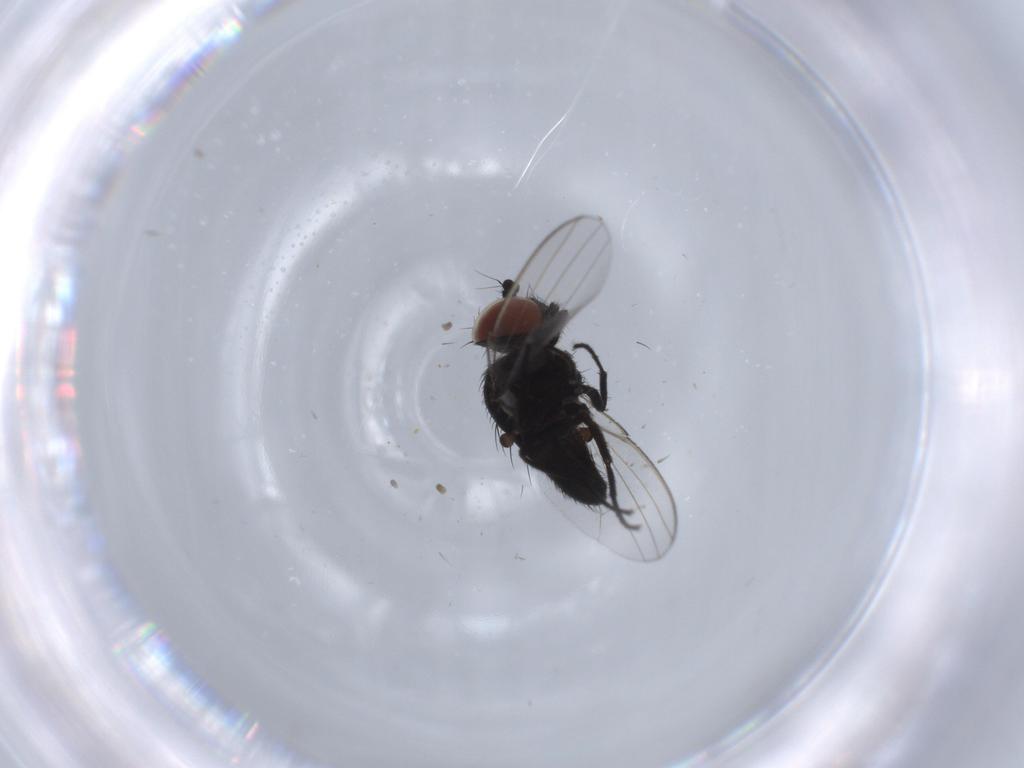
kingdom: Animalia
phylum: Arthropoda
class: Insecta
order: Diptera
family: Milichiidae
